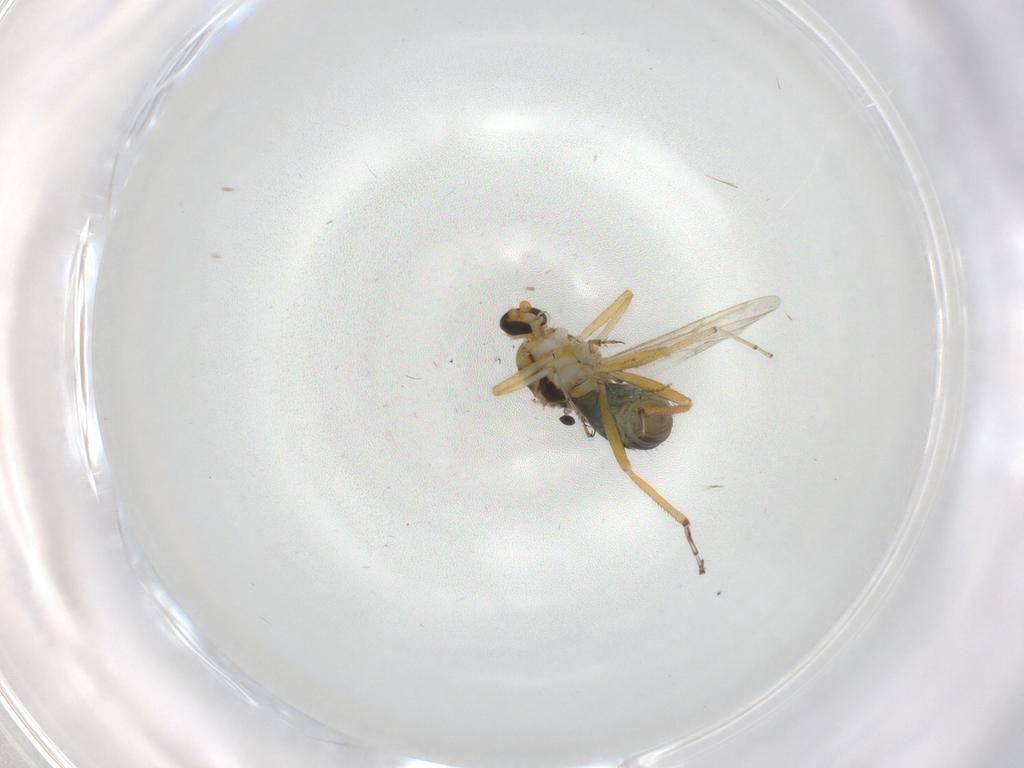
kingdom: Animalia
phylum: Arthropoda
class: Insecta
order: Diptera
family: Ceratopogonidae
